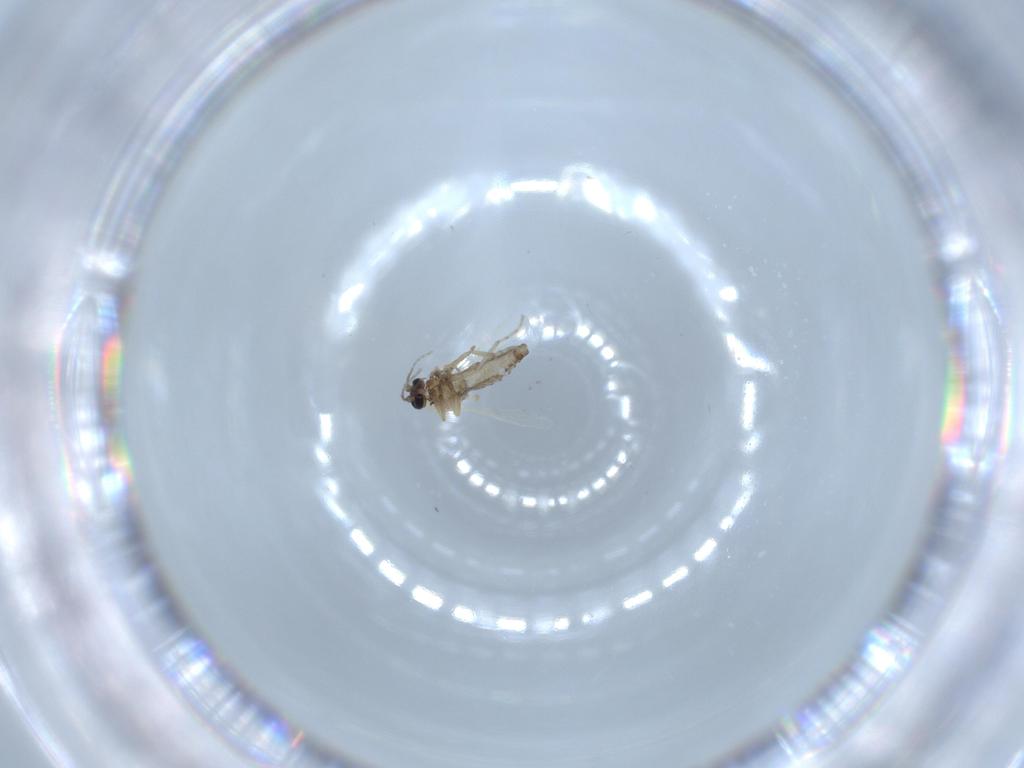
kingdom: Animalia
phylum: Arthropoda
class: Insecta
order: Diptera
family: Ceratopogonidae
